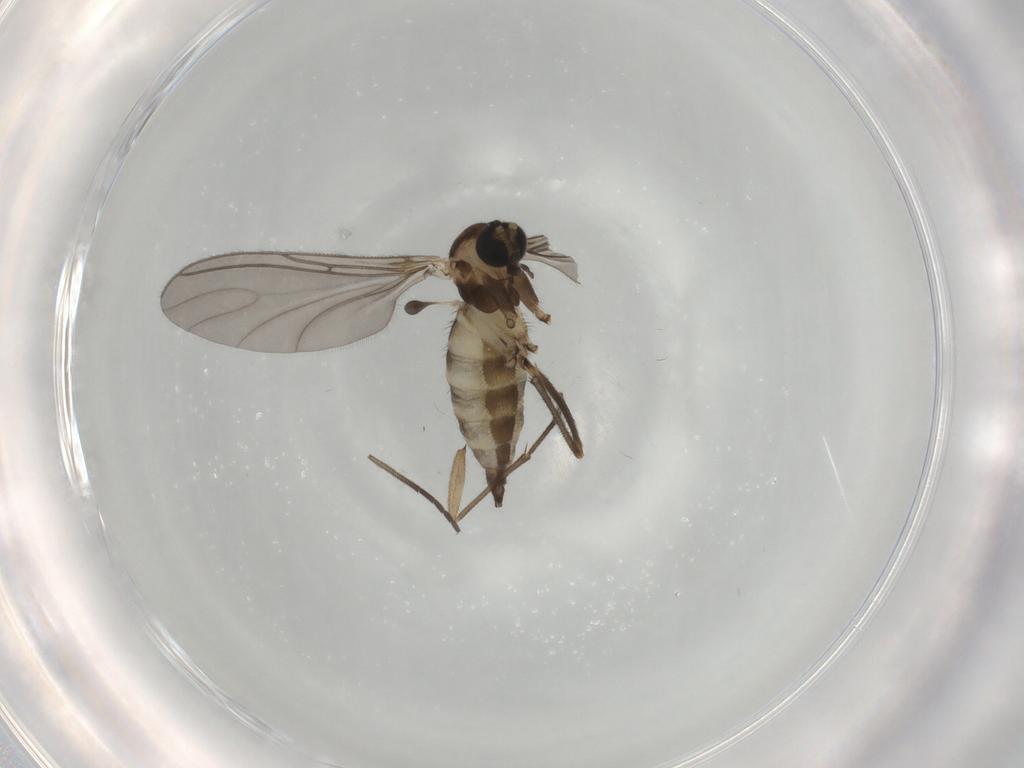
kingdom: Animalia
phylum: Arthropoda
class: Insecta
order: Diptera
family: Sciaridae
